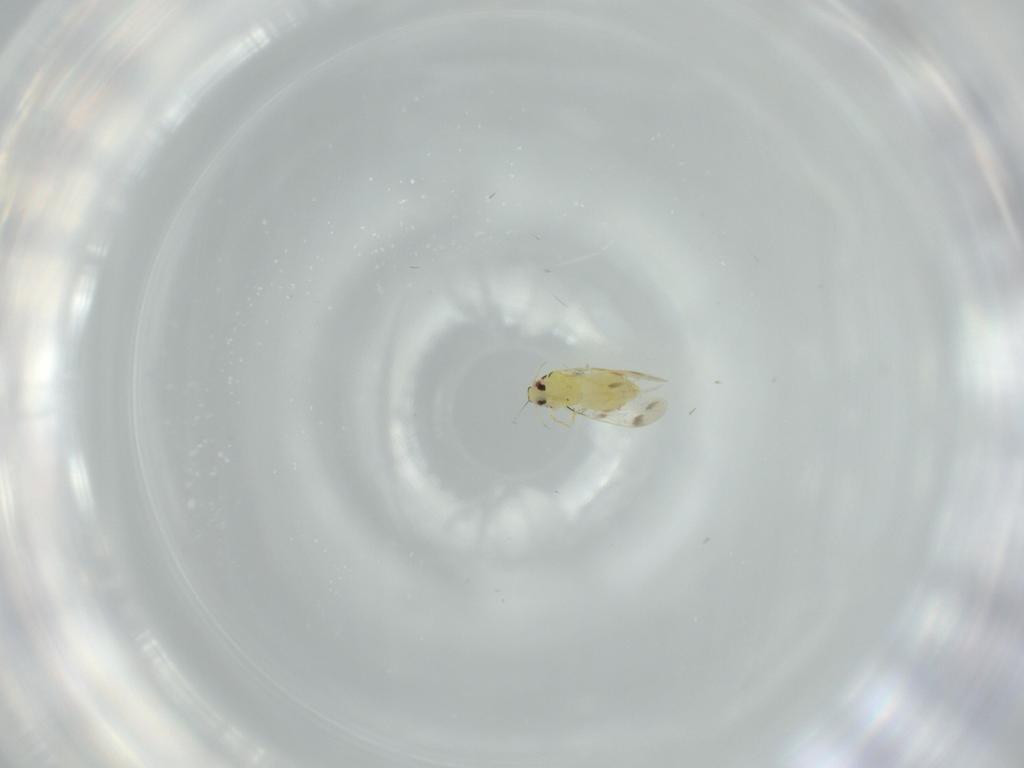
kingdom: Animalia
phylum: Arthropoda
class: Insecta
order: Hemiptera
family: Aleyrodidae
